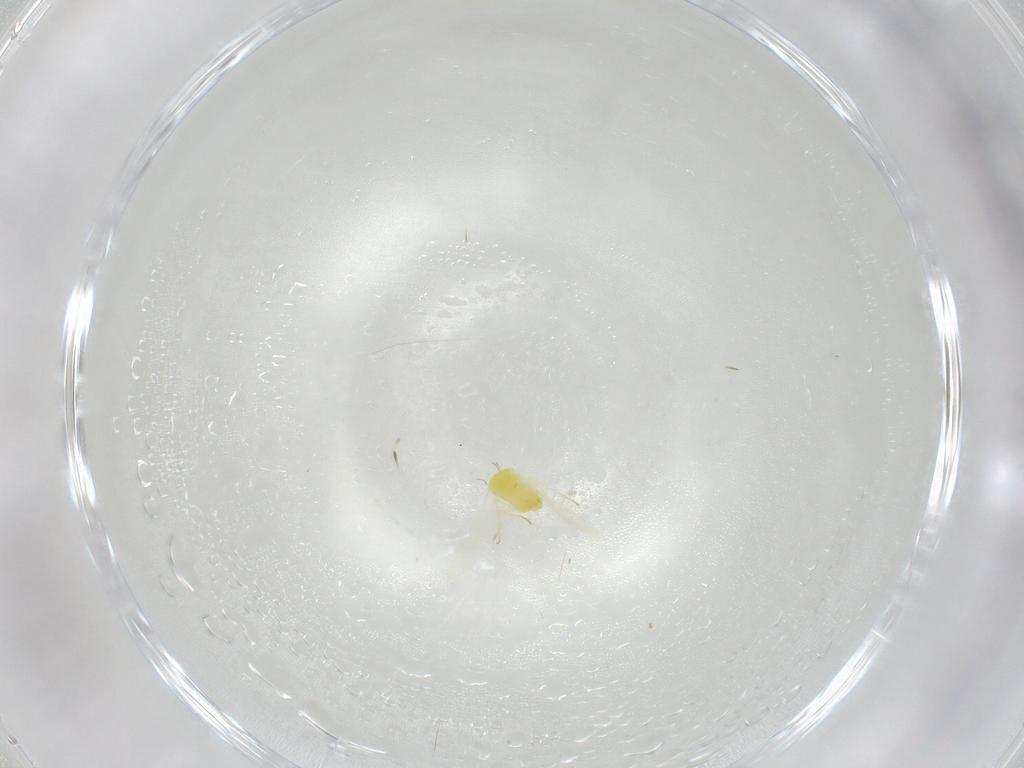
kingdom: Animalia
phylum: Arthropoda
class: Insecta
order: Hemiptera
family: Aleyrodidae
